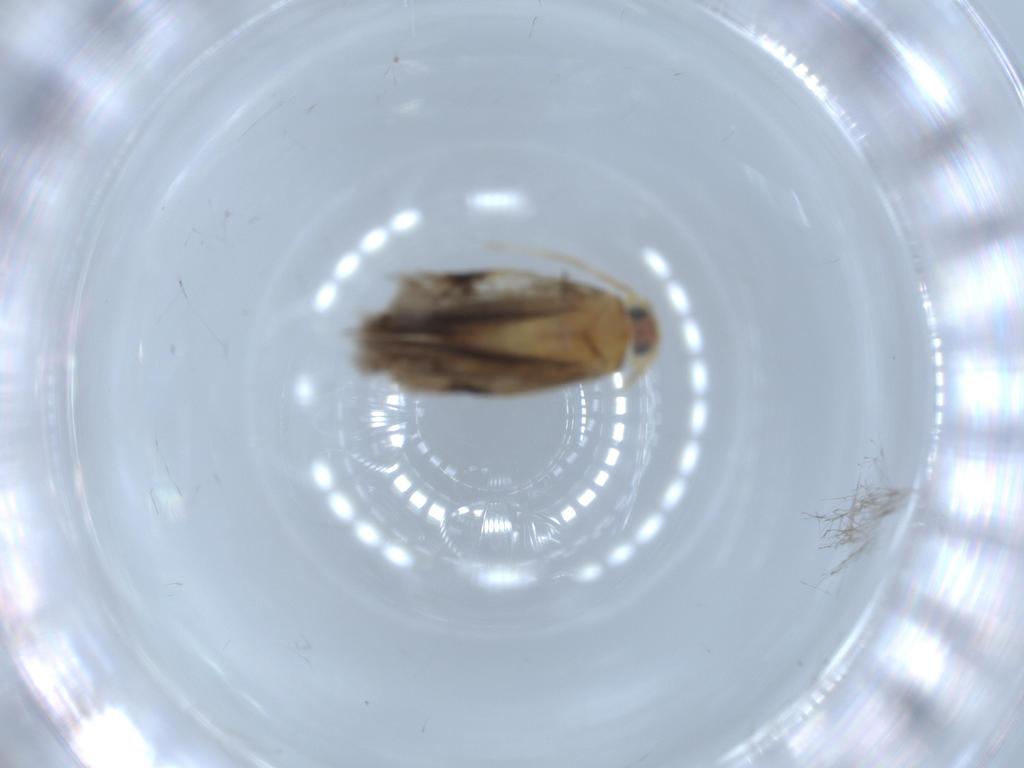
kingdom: Animalia
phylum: Arthropoda
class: Insecta
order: Lepidoptera
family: Nepticulidae
